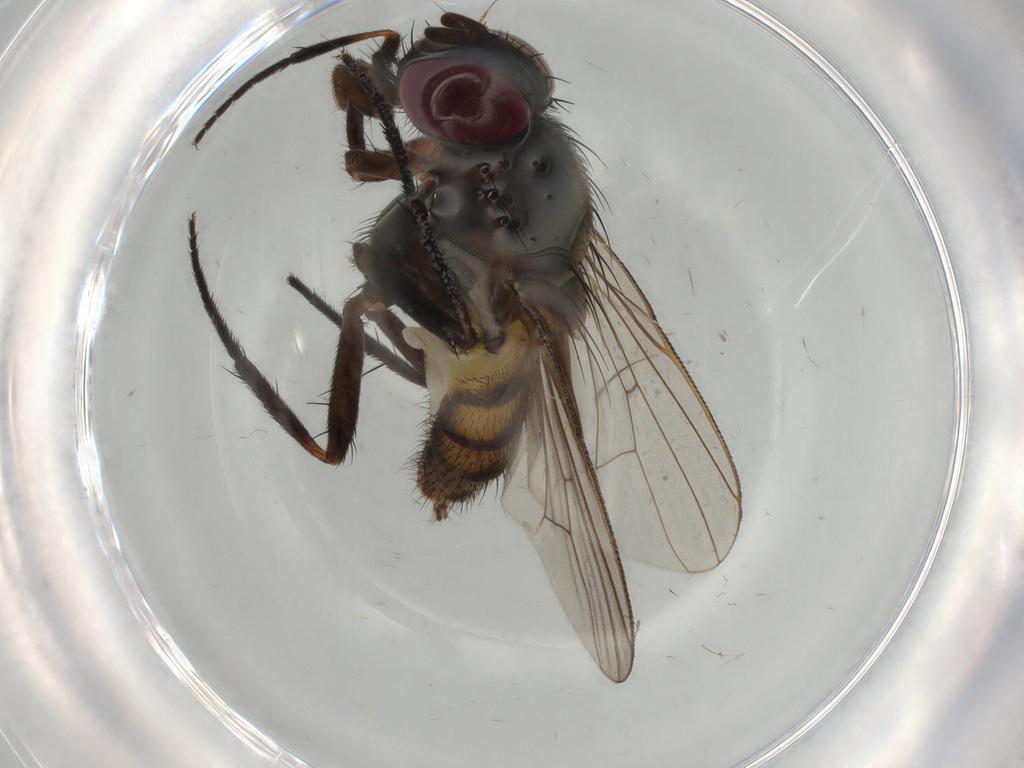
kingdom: Animalia
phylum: Arthropoda
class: Insecta
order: Diptera
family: Fannia
